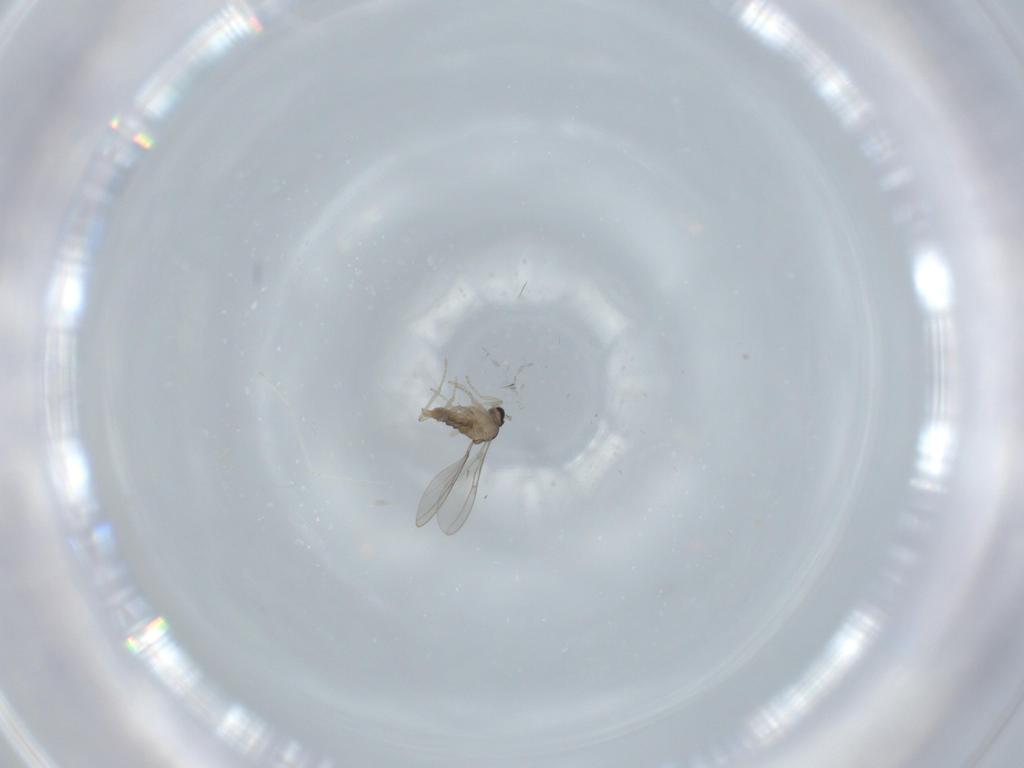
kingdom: Animalia
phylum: Arthropoda
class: Insecta
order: Diptera
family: Cecidomyiidae
